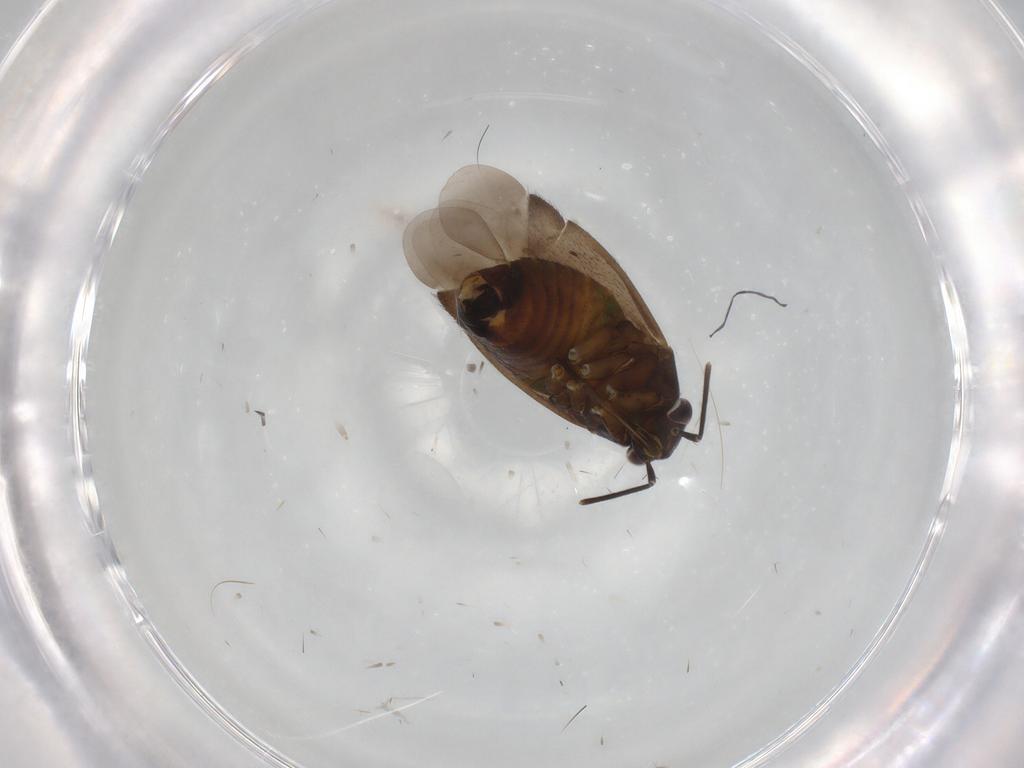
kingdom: Animalia
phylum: Arthropoda
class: Insecta
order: Hemiptera
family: Miridae
